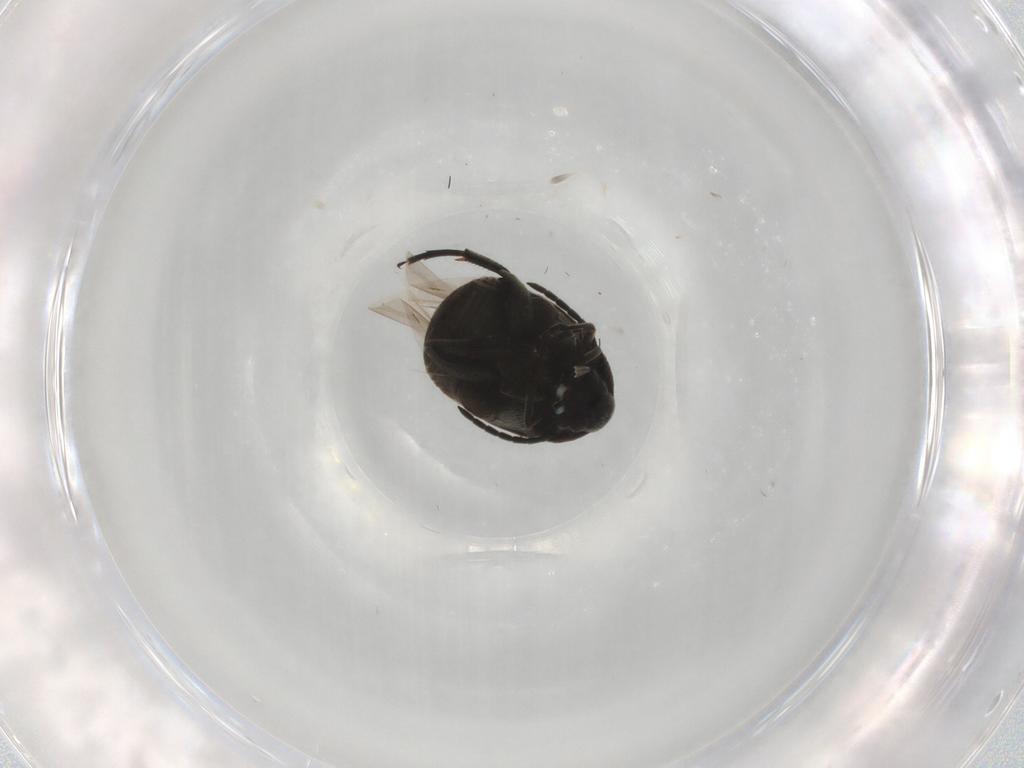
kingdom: Animalia
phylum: Arthropoda
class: Insecta
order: Coleoptera
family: Chrysomelidae
